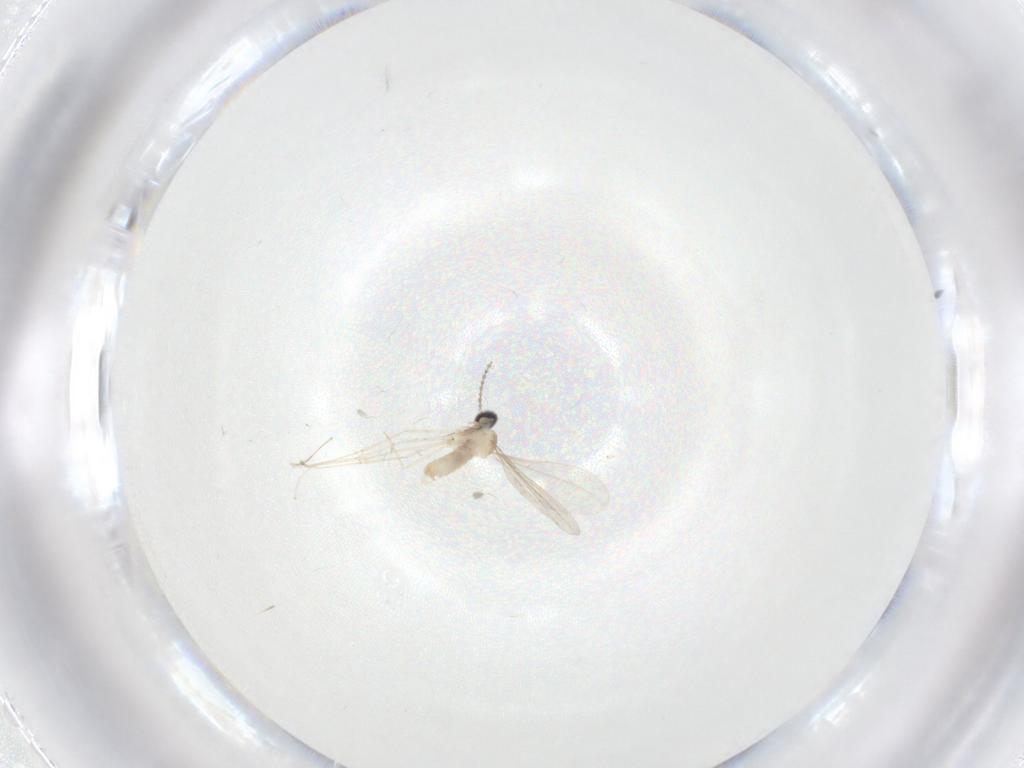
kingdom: Animalia
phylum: Arthropoda
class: Insecta
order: Diptera
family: Cecidomyiidae
